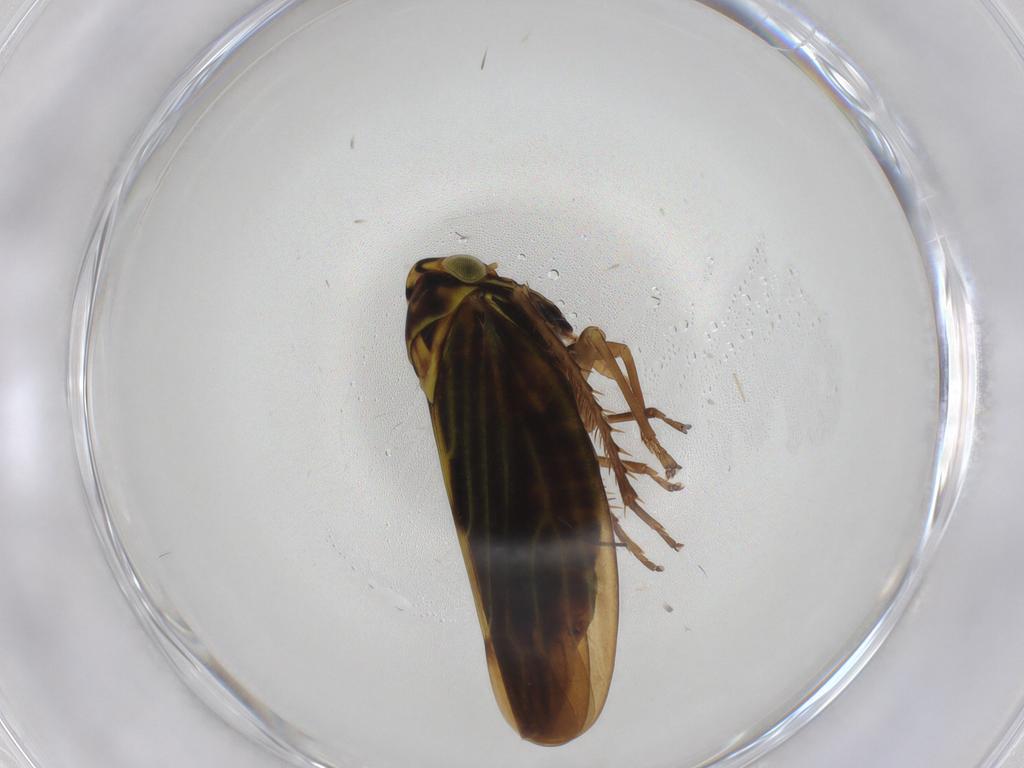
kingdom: Animalia
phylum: Arthropoda
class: Insecta
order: Hemiptera
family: Cicadellidae
